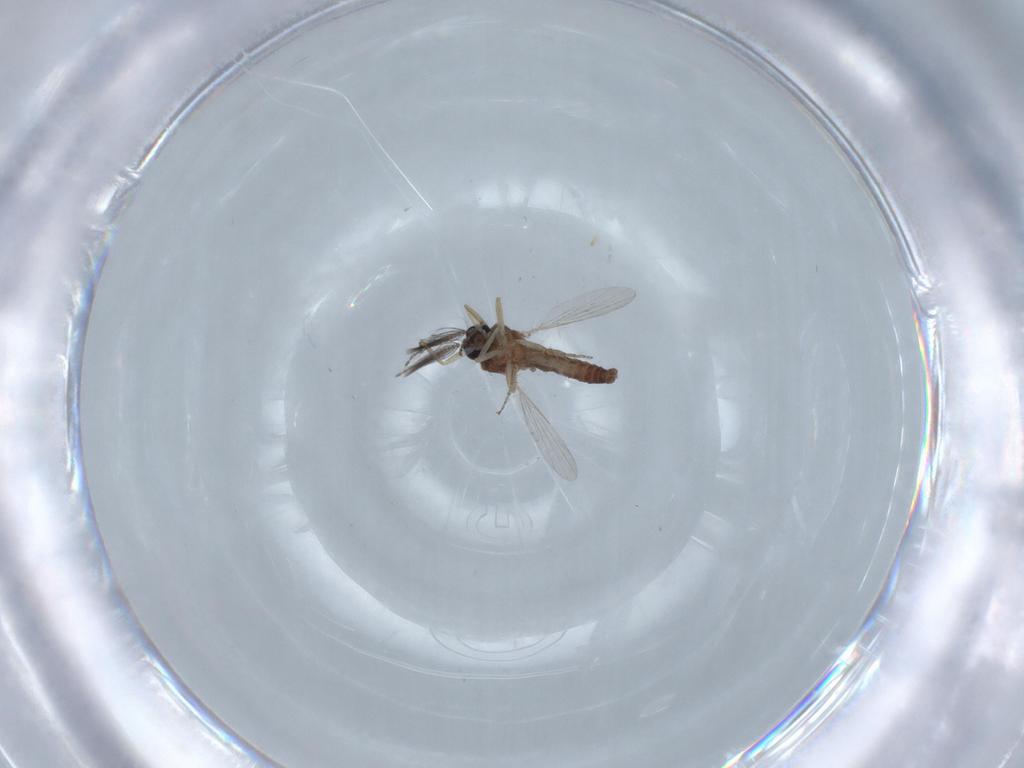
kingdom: Animalia
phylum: Arthropoda
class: Insecta
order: Diptera
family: Ceratopogonidae
